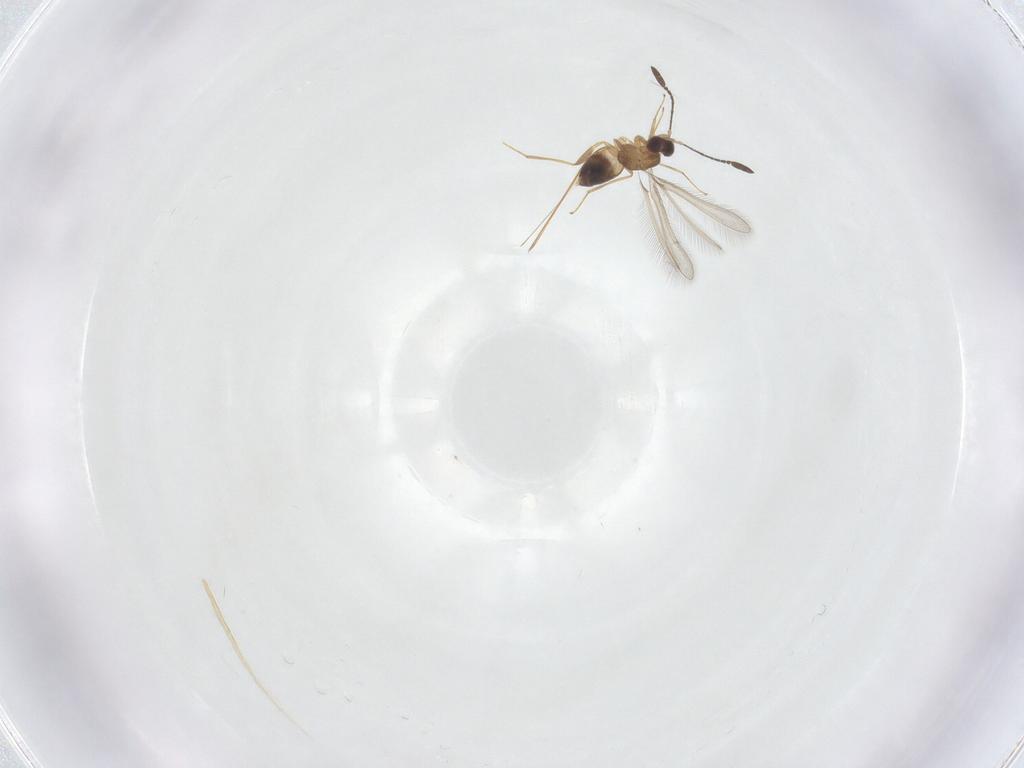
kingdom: Animalia
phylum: Arthropoda
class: Insecta
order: Hymenoptera
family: Mymaridae
